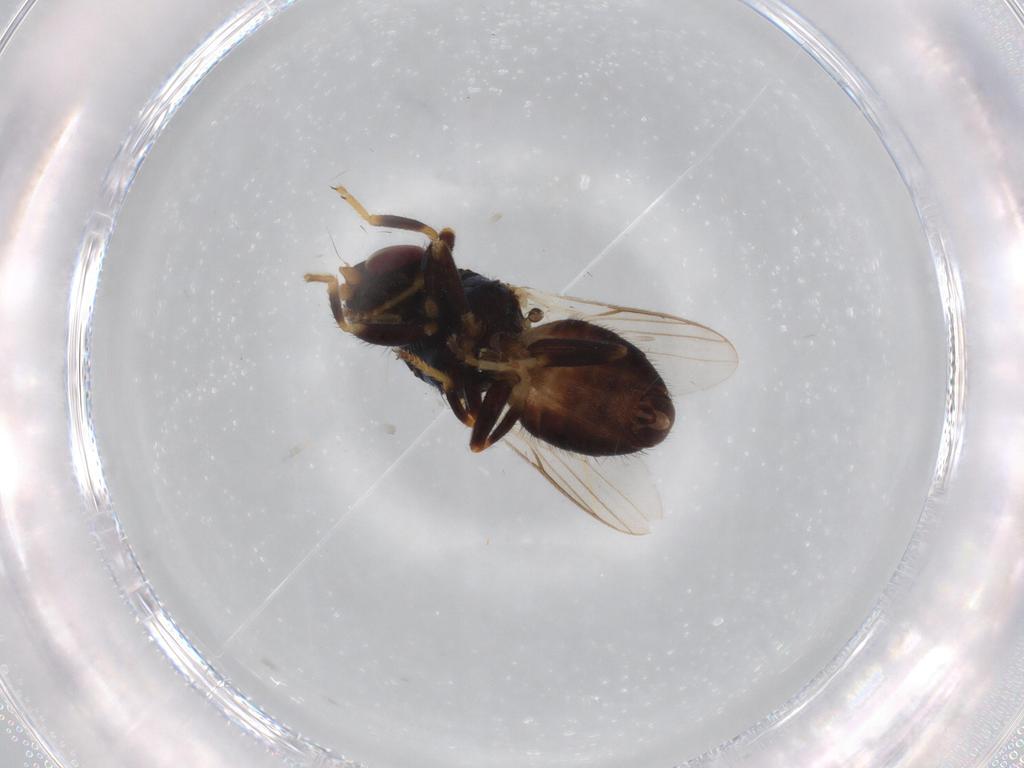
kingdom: Animalia
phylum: Arthropoda
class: Insecta
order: Diptera
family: Chloropidae
